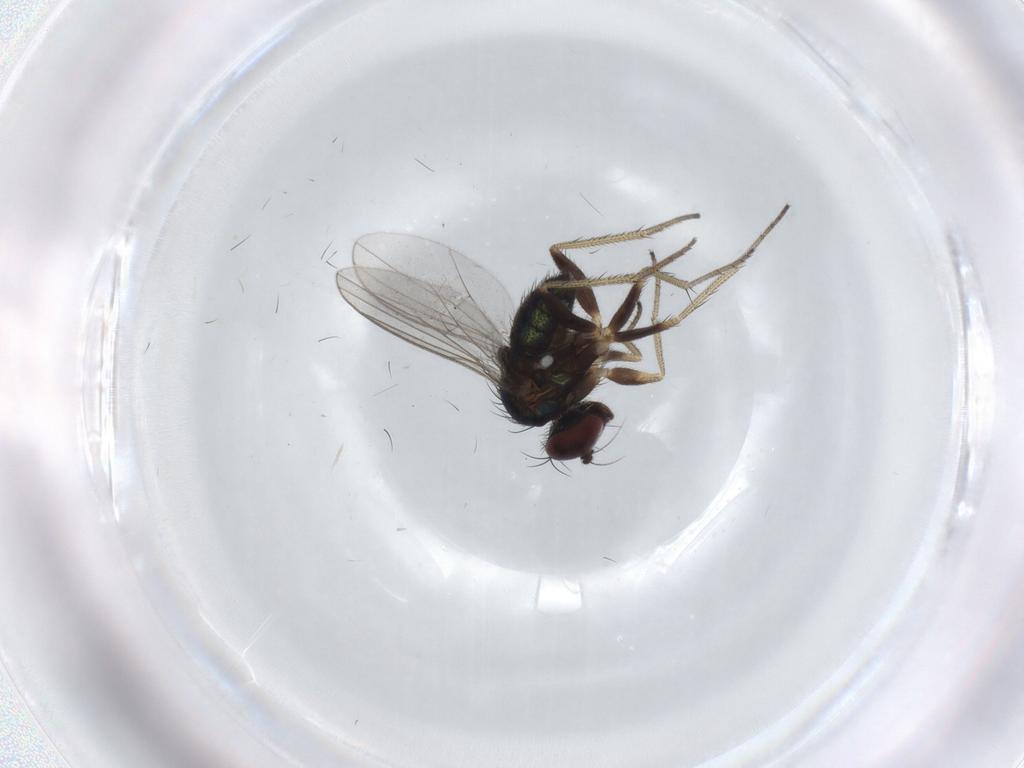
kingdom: Animalia
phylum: Arthropoda
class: Insecta
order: Diptera
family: Dolichopodidae
